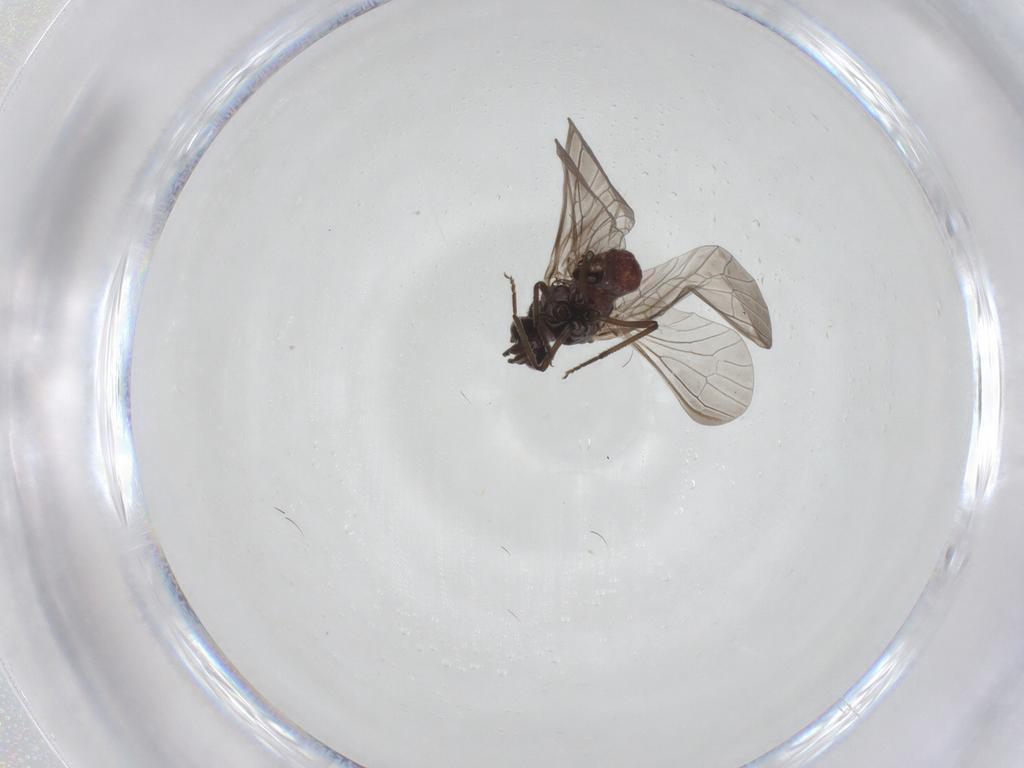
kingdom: Animalia
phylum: Arthropoda
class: Insecta
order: Neuroptera
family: Coniopterygidae
